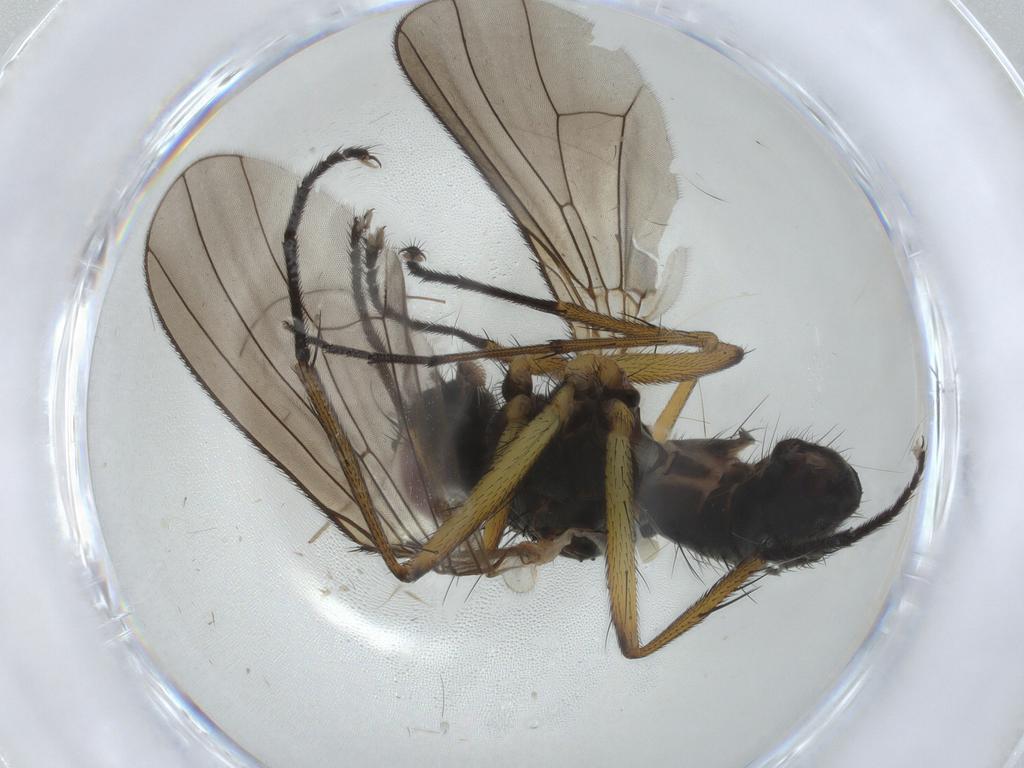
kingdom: Animalia
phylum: Arthropoda
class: Insecta
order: Diptera
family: Muscidae
